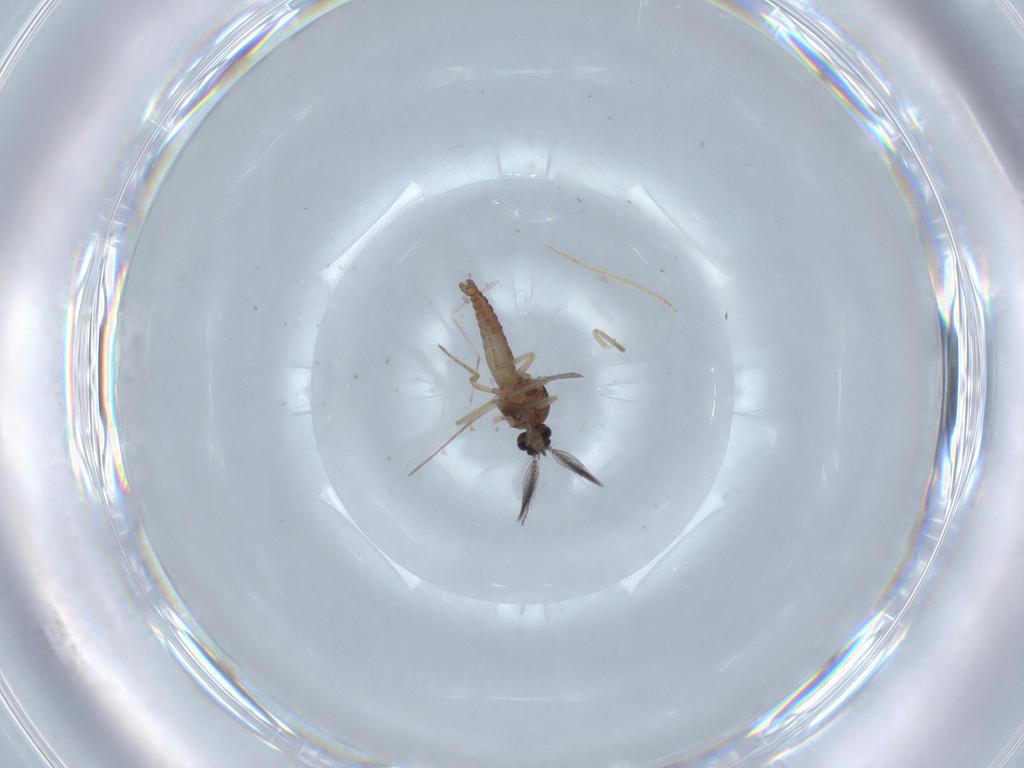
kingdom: Animalia
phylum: Arthropoda
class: Insecta
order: Diptera
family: Ceratopogonidae
